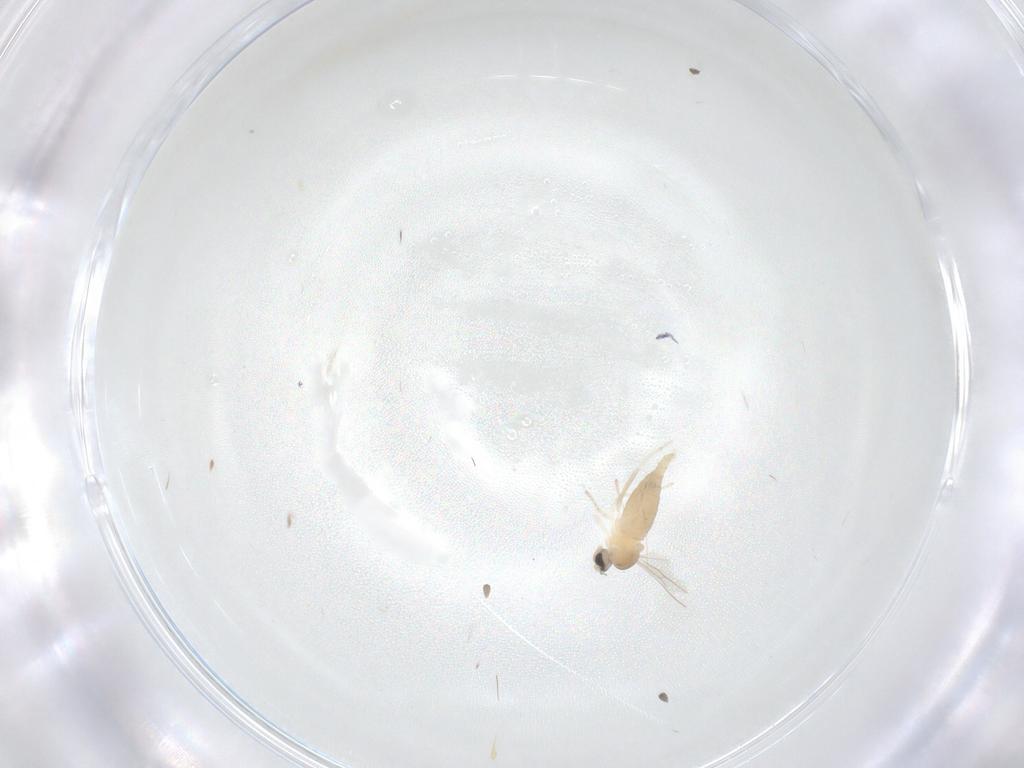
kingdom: Animalia
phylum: Arthropoda
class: Insecta
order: Diptera
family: Cecidomyiidae
